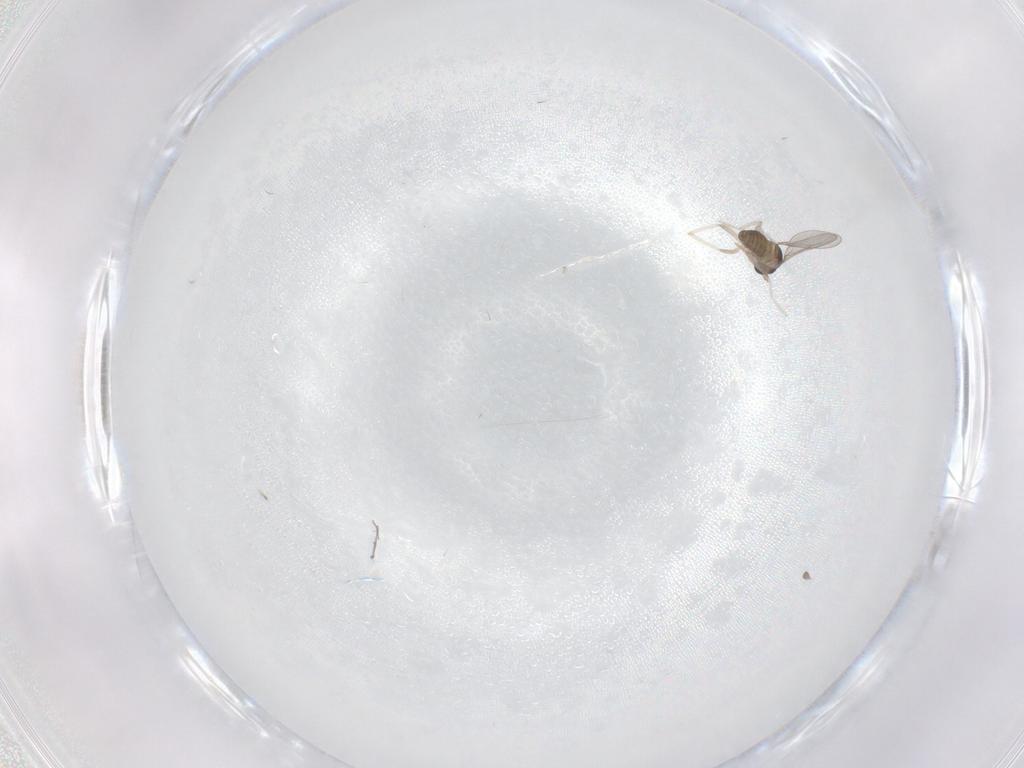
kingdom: Animalia
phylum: Arthropoda
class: Insecta
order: Diptera
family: Cecidomyiidae
